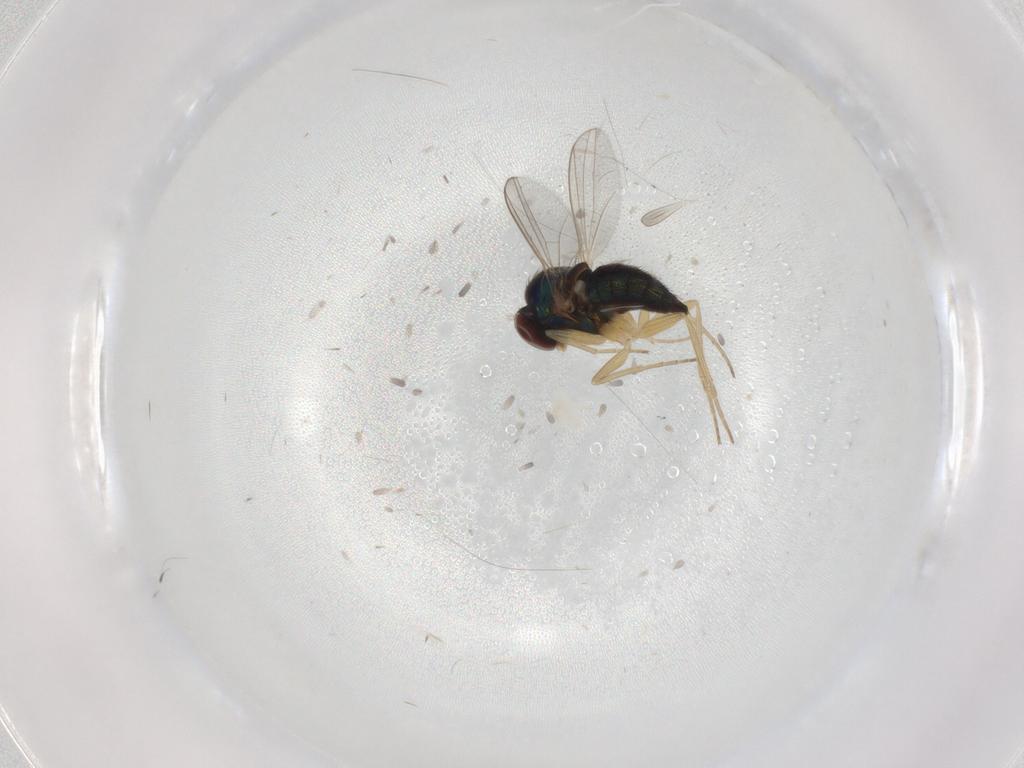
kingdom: Animalia
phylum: Arthropoda
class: Insecta
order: Diptera
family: Dolichopodidae
